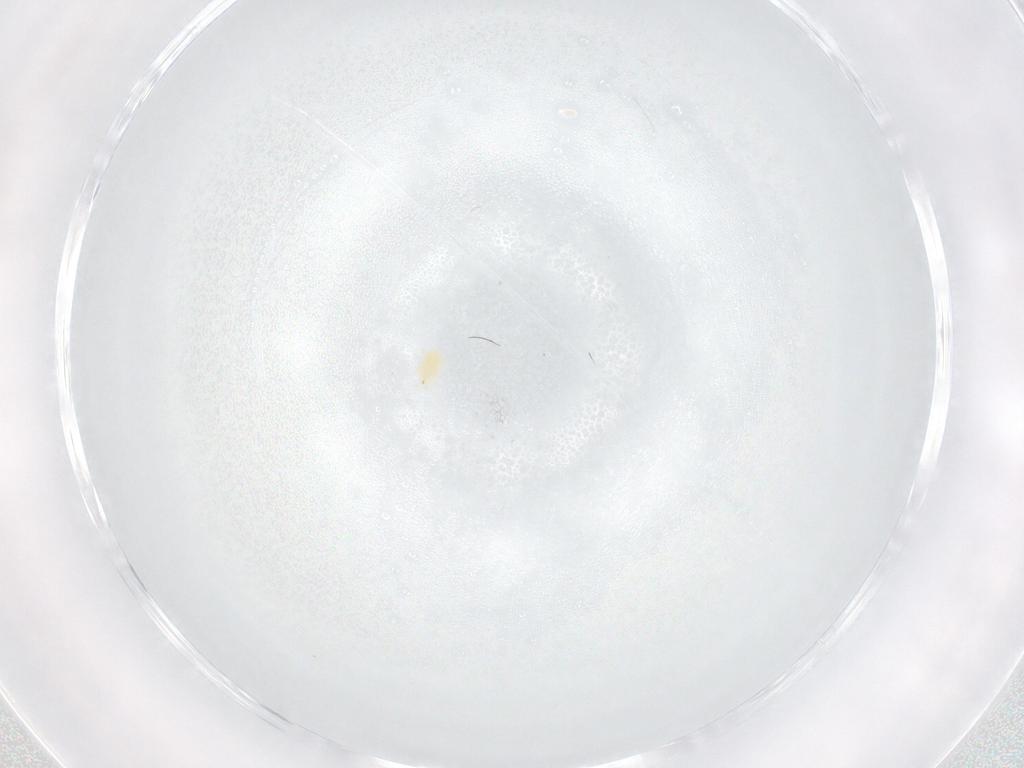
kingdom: Animalia
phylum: Arthropoda
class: Arachnida
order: Trombidiformes
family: Tetranychidae
